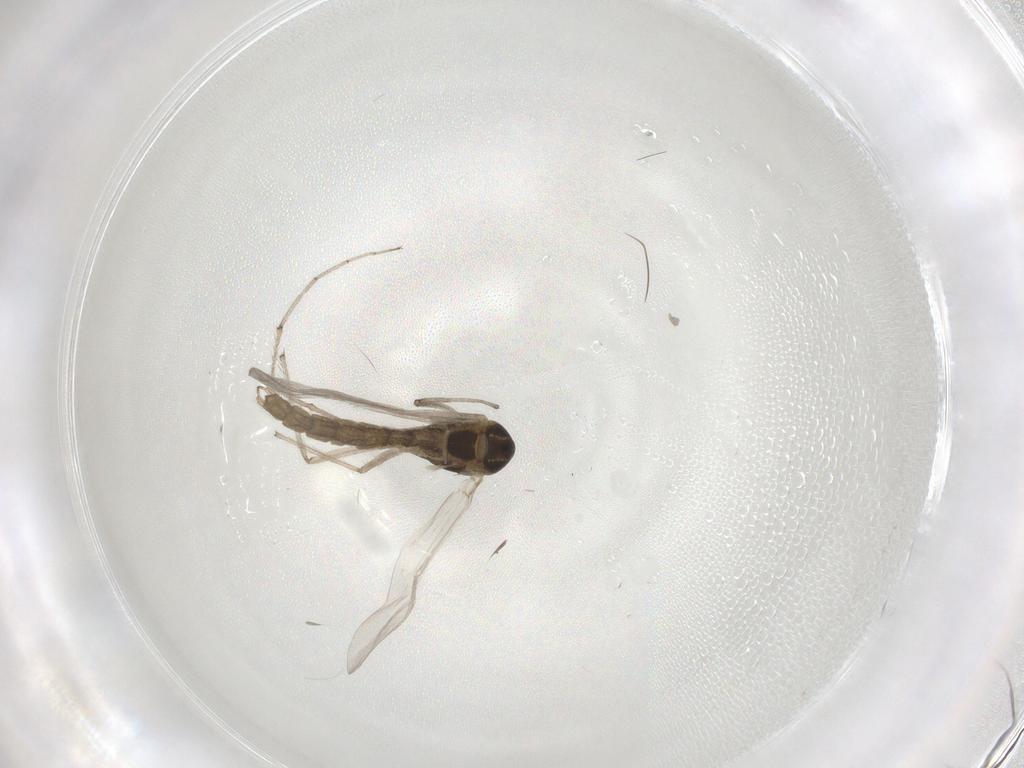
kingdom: Animalia
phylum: Arthropoda
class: Insecta
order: Diptera
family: Chironomidae
